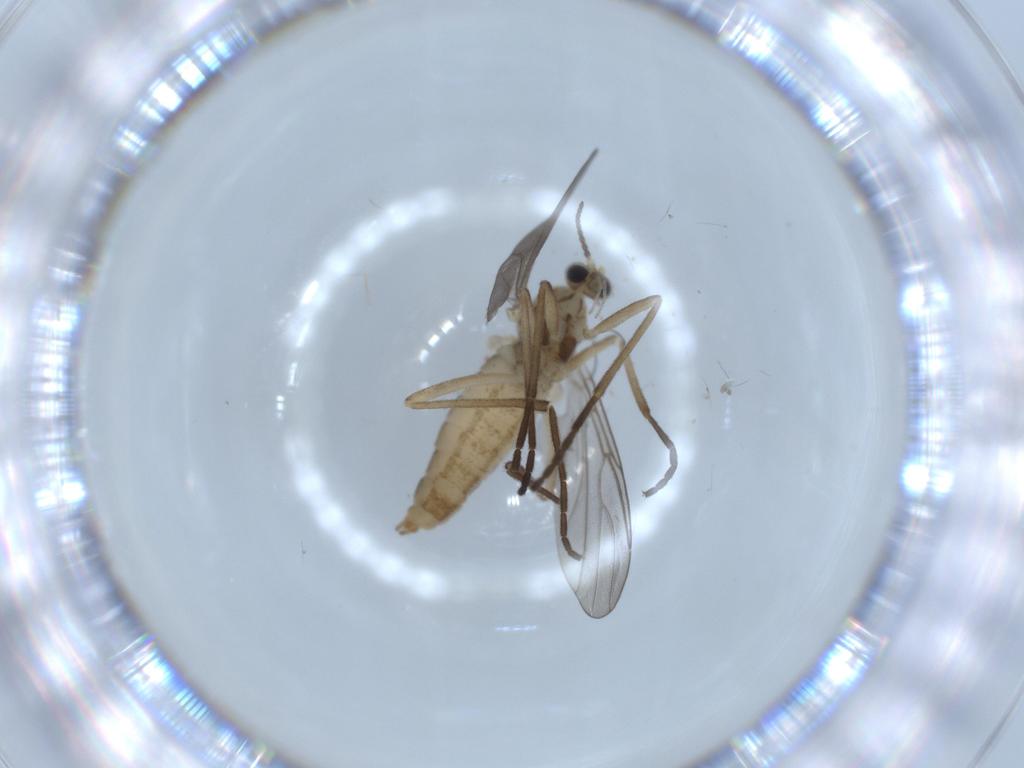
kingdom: Animalia
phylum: Arthropoda
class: Insecta
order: Diptera
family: Cecidomyiidae
